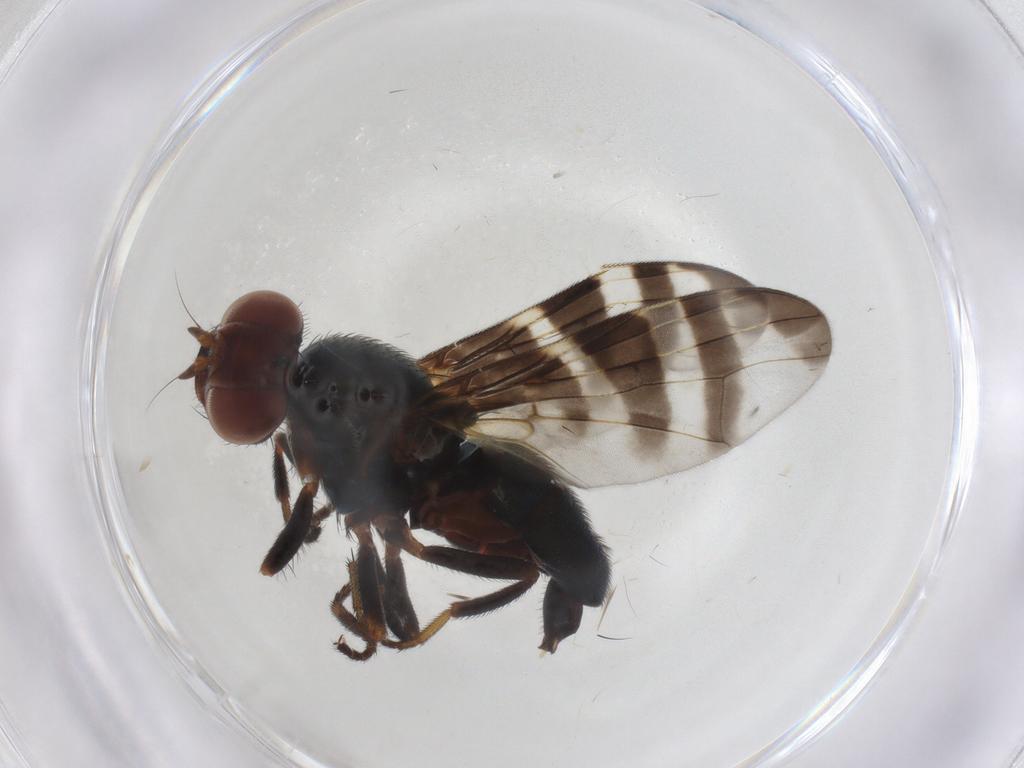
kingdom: Animalia
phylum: Arthropoda
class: Insecta
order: Diptera
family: Platystomatidae
